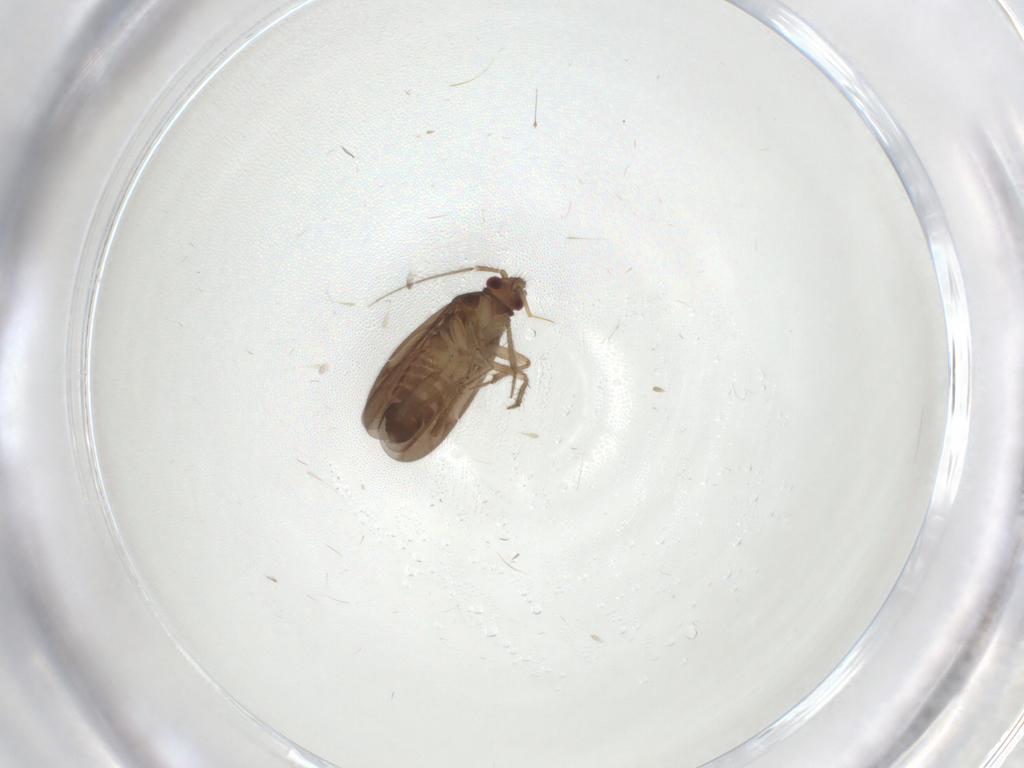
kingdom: Animalia
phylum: Arthropoda
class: Insecta
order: Hemiptera
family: Ceratocombidae
